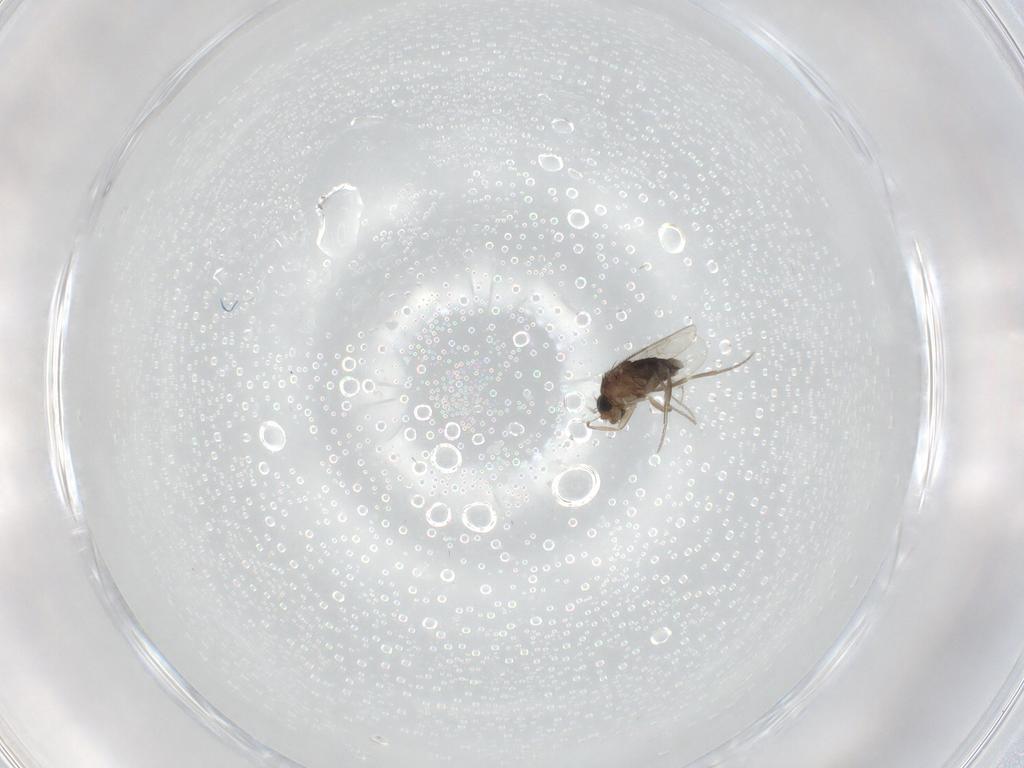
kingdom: Animalia
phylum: Arthropoda
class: Insecta
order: Diptera
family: Phoridae
